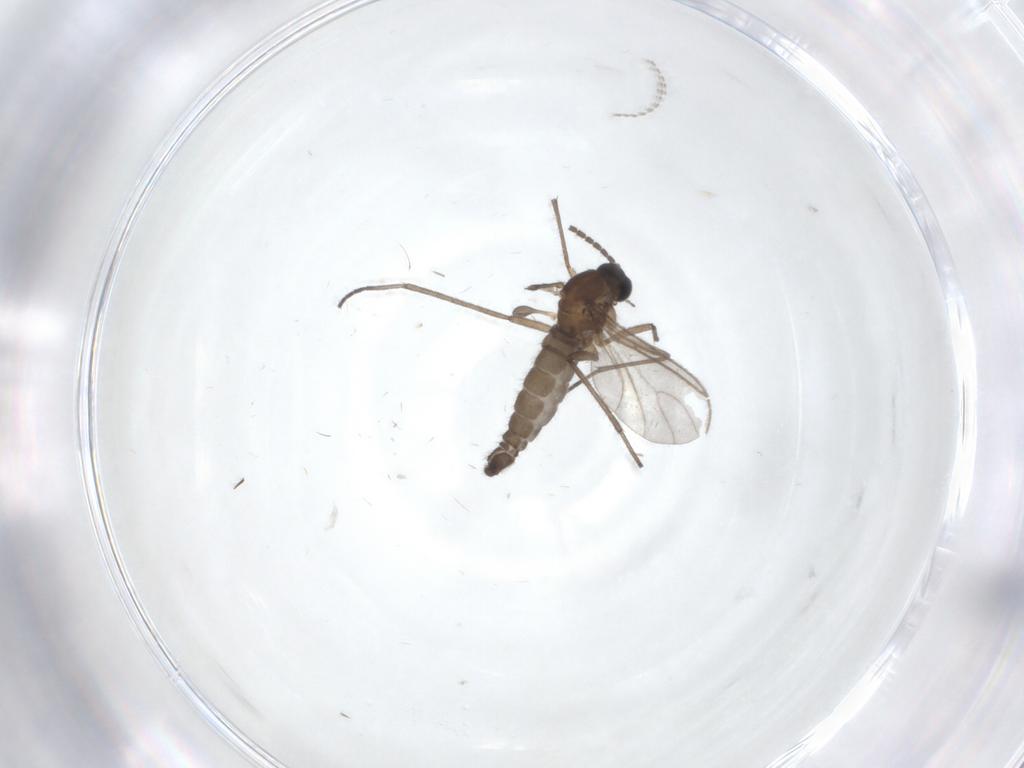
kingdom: Animalia
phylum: Arthropoda
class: Insecta
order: Diptera
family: Sciaridae
